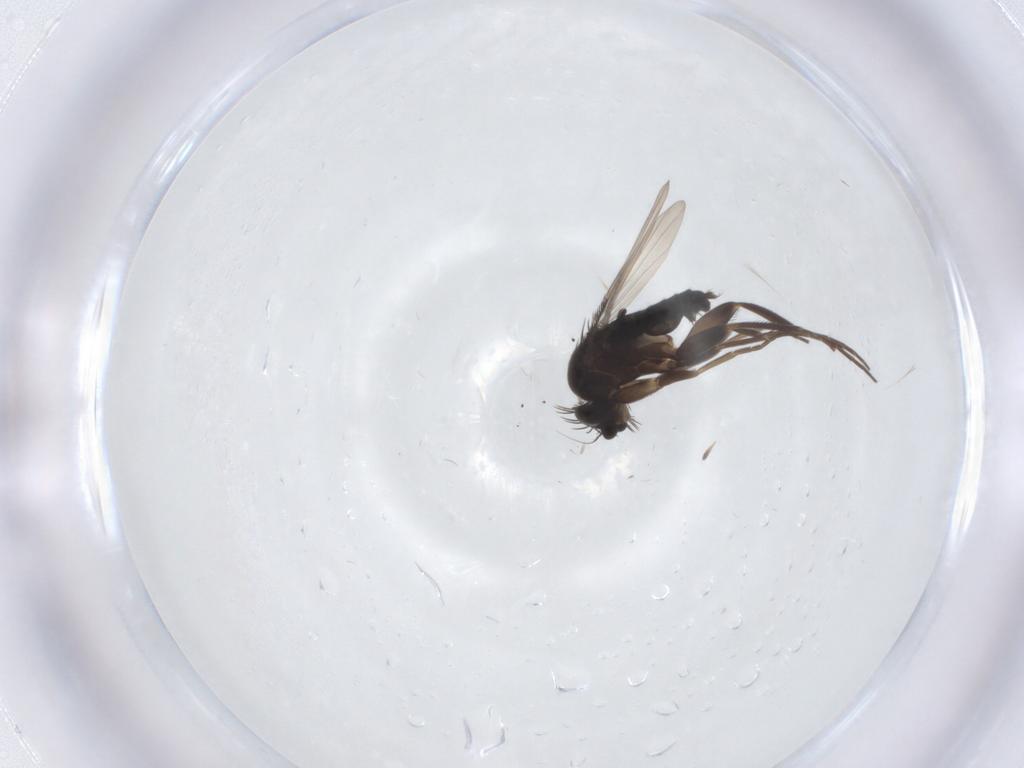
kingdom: Animalia
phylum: Arthropoda
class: Insecta
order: Diptera
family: Phoridae
